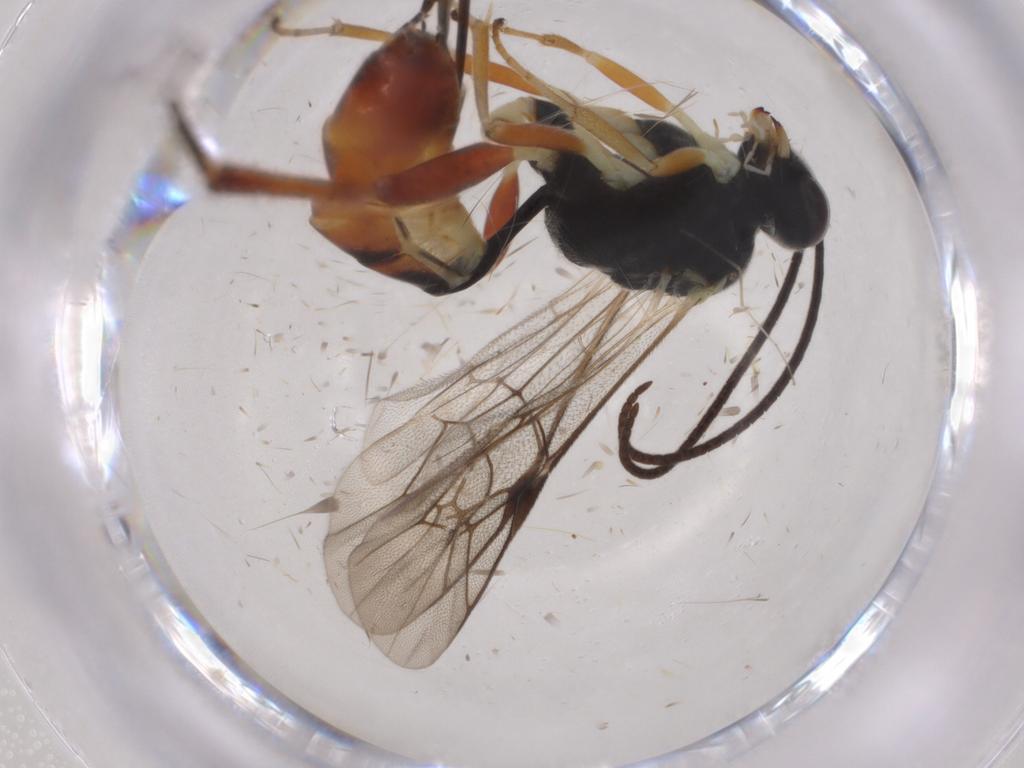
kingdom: Animalia
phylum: Arthropoda
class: Insecta
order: Hymenoptera
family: Ichneumonidae
